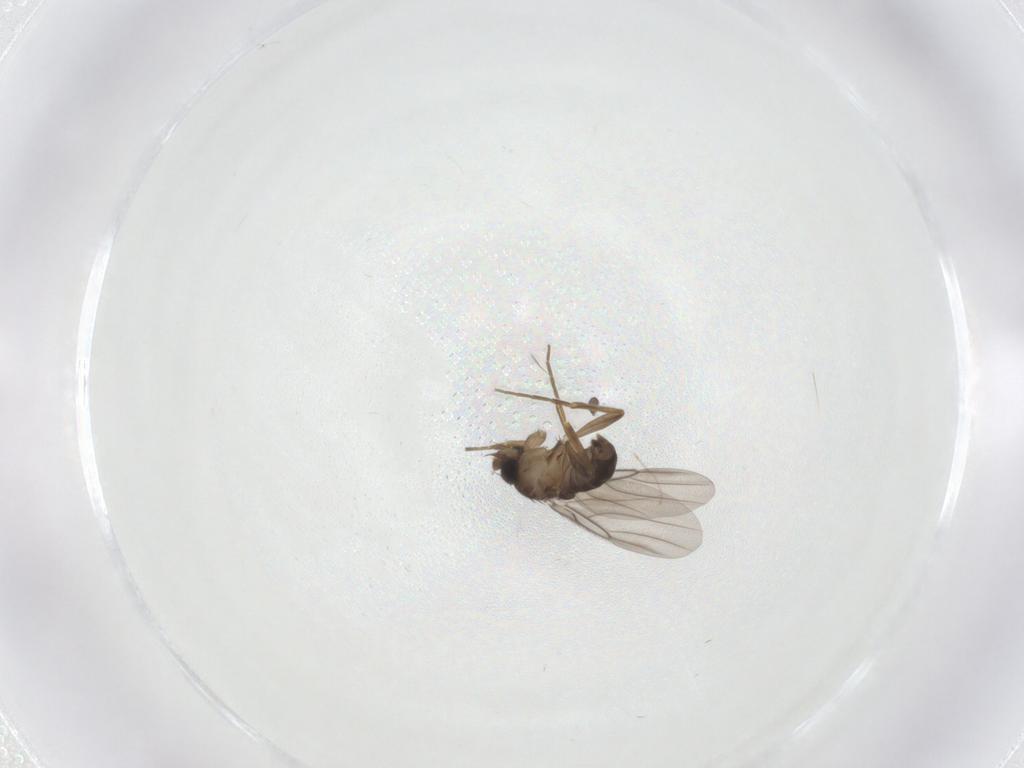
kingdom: Animalia
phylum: Arthropoda
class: Insecta
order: Diptera
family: Cecidomyiidae
